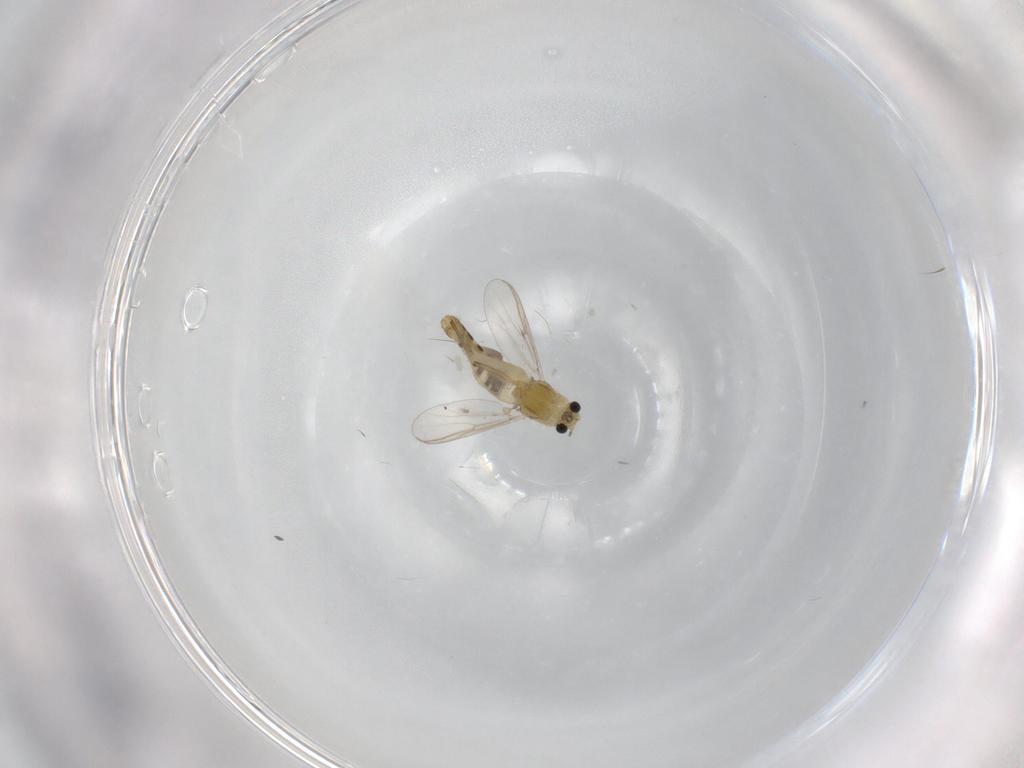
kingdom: Animalia
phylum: Arthropoda
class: Insecta
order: Diptera
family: Chironomidae
